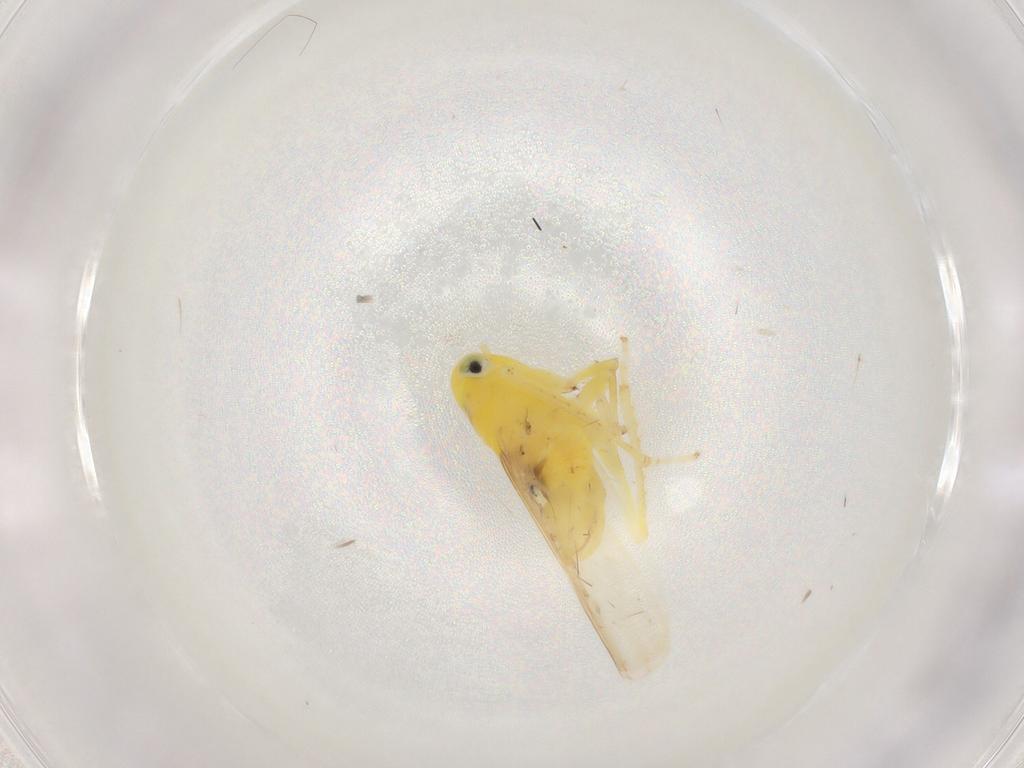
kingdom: Animalia
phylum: Arthropoda
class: Insecta
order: Hemiptera
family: Cicadellidae
